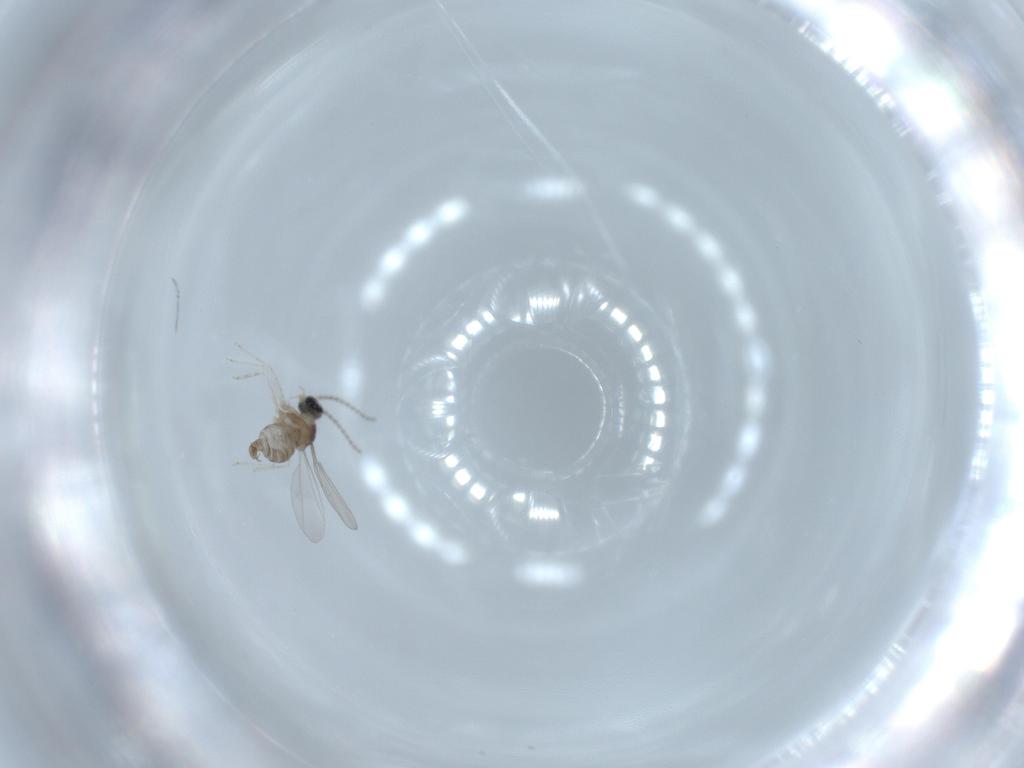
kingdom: Animalia
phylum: Arthropoda
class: Insecta
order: Diptera
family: Cecidomyiidae
